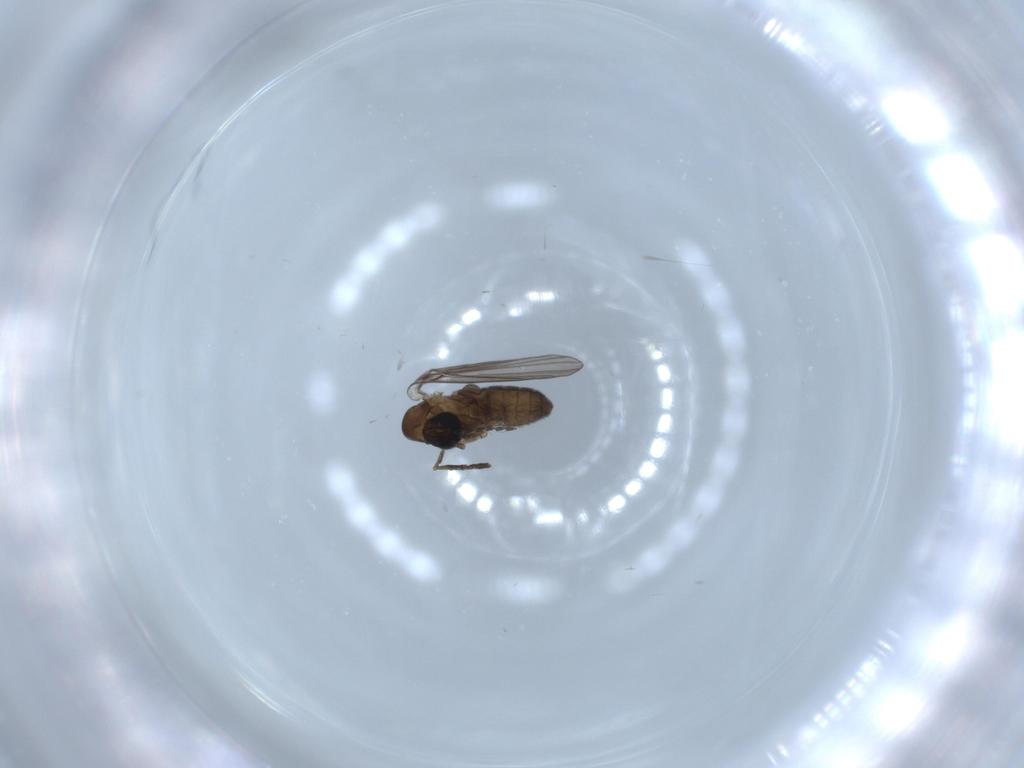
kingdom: Animalia
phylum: Arthropoda
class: Insecta
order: Diptera
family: Psychodidae
